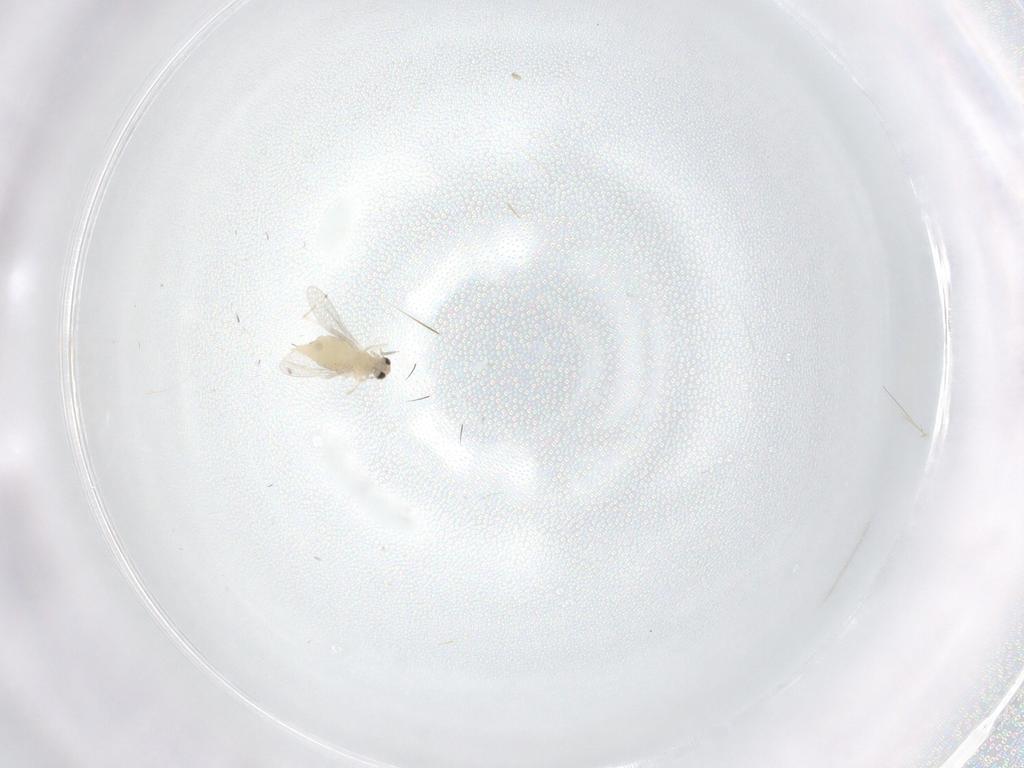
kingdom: Animalia
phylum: Arthropoda
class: Insecta
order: Diptera
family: Cecidomyiidae
